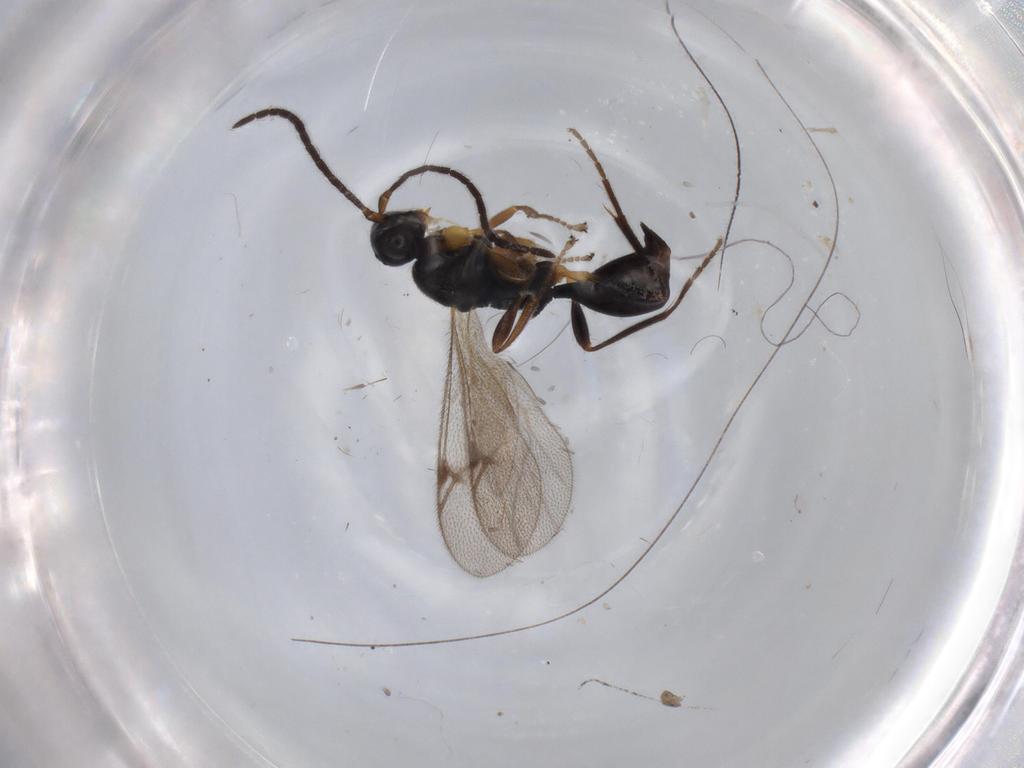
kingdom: Animalia
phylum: Arthropoda
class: Insecta
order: Hymenoptera
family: Proctotrupidae
